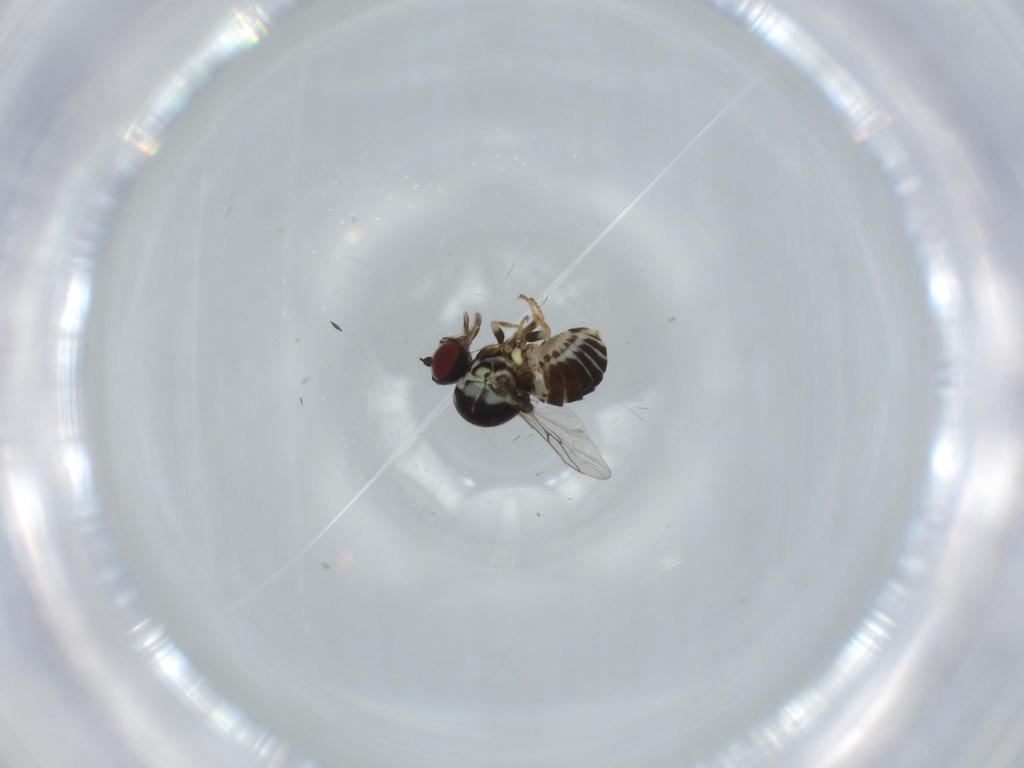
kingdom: Animalia
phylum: Arthropoda
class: Insecta
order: Diptera
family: Bombyliidae
